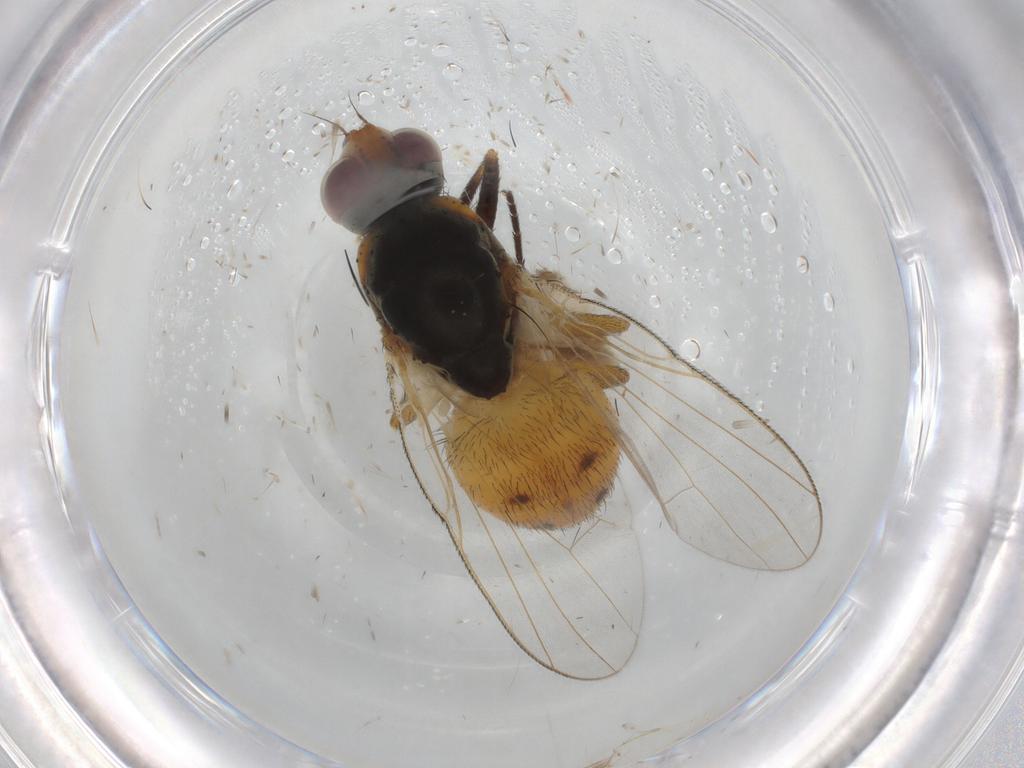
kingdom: Animalia
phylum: Arthropoda
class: Insecta
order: Diptera
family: Muscidae
